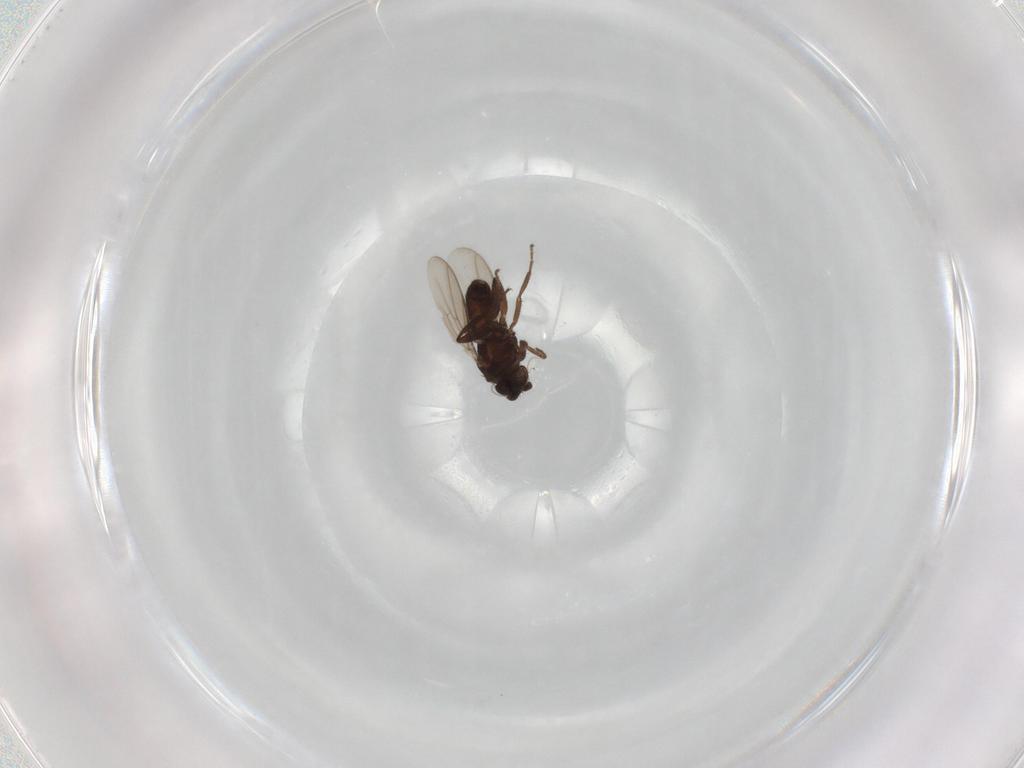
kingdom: Animalia
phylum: Arthropoda
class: Insecta
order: Diptera
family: Sphaeroceridae
